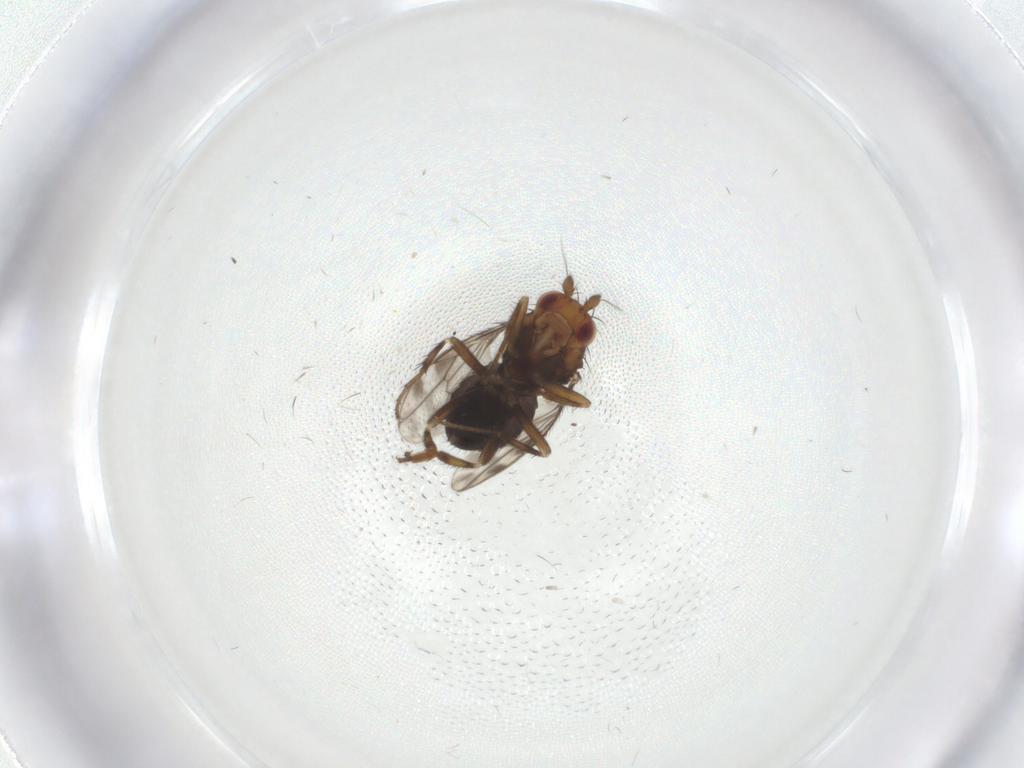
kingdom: Animalia
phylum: Arthropoda
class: Insecta
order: Diptera
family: Sphaeroceridae
